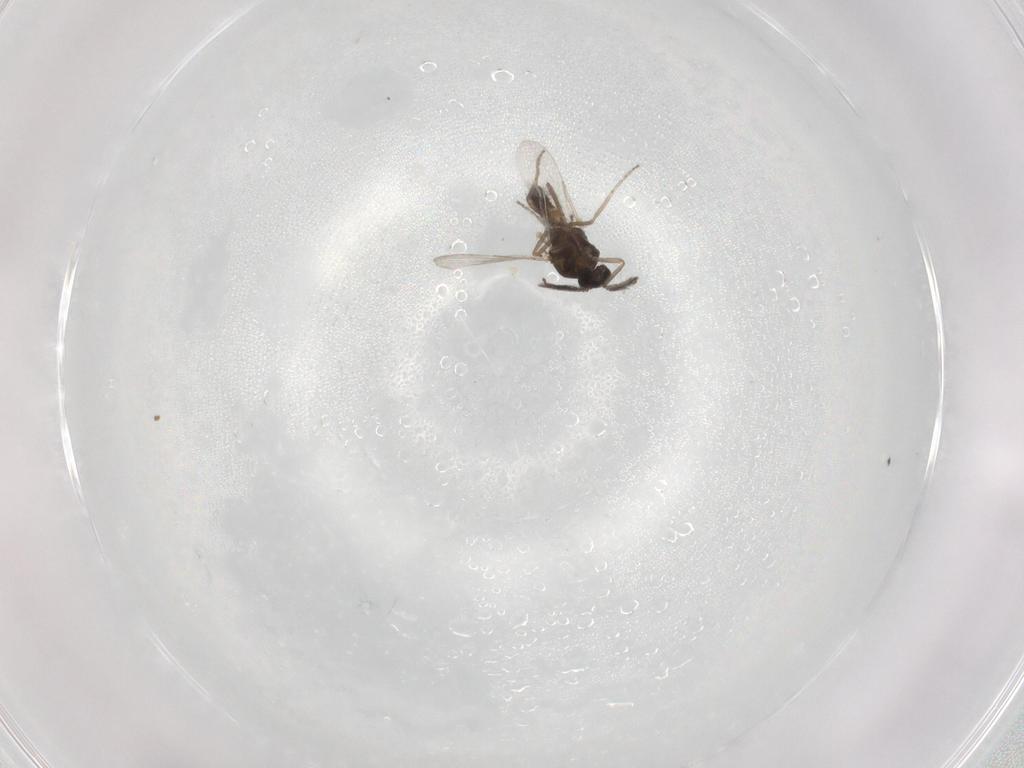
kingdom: Animalia
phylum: Arthropoda
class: Insecta
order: Diptera
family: Ceratopogonidae
